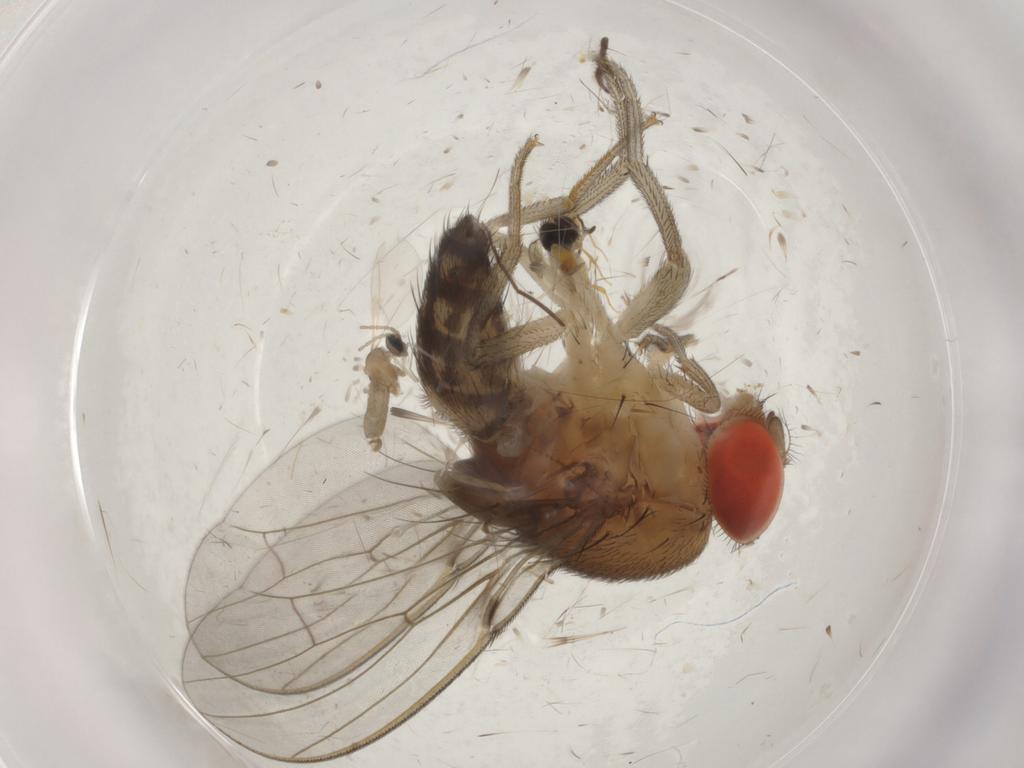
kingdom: Animalia
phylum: Arthropoda
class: Insecta
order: Diptera
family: Drosophilidae
